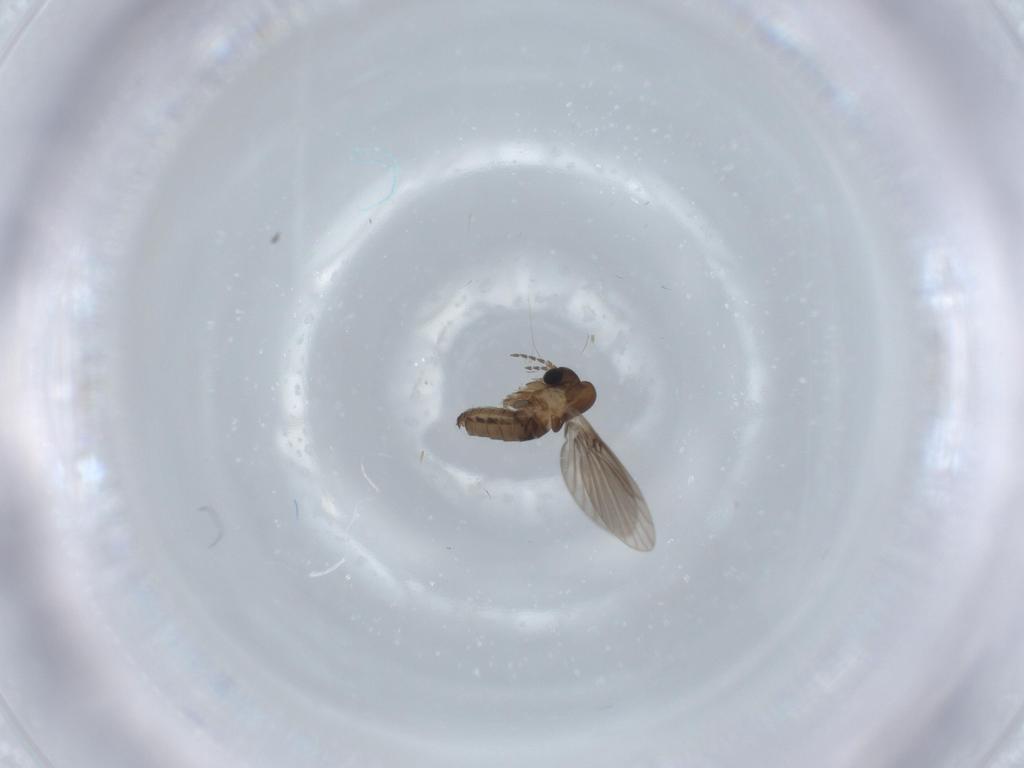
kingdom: Animalia
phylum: Arthropoda
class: Insecta
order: Diptera
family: Psychodidae
